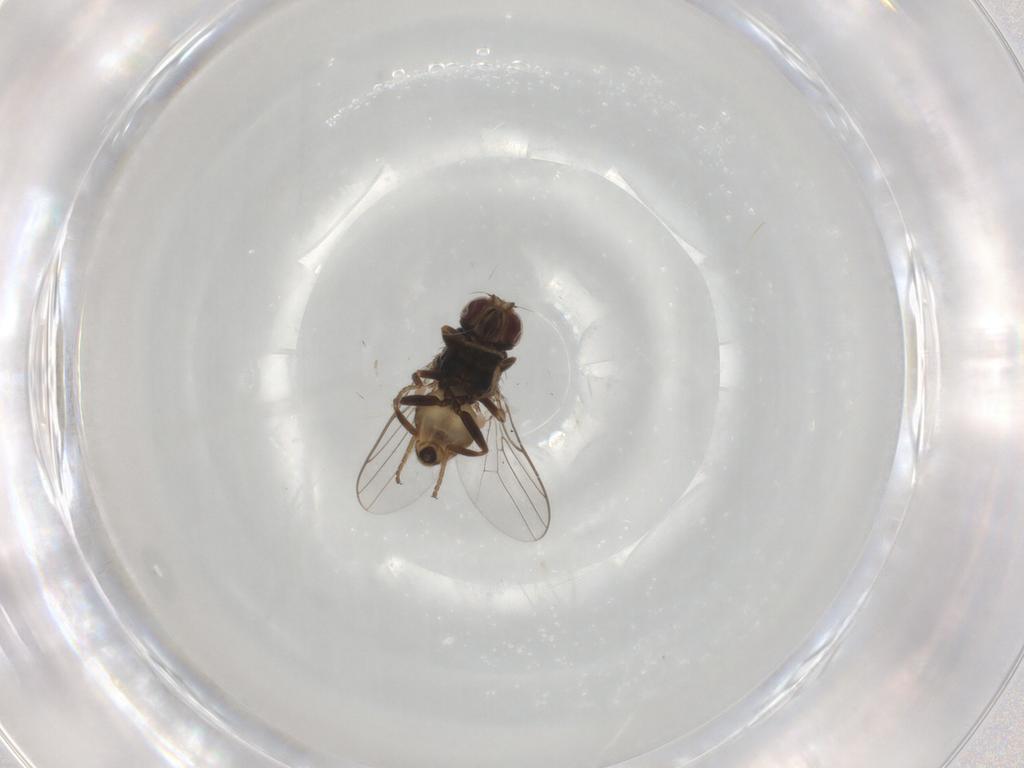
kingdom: Animalia
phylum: Arthropoda
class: Insecta
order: Diptera
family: Chloropidae
